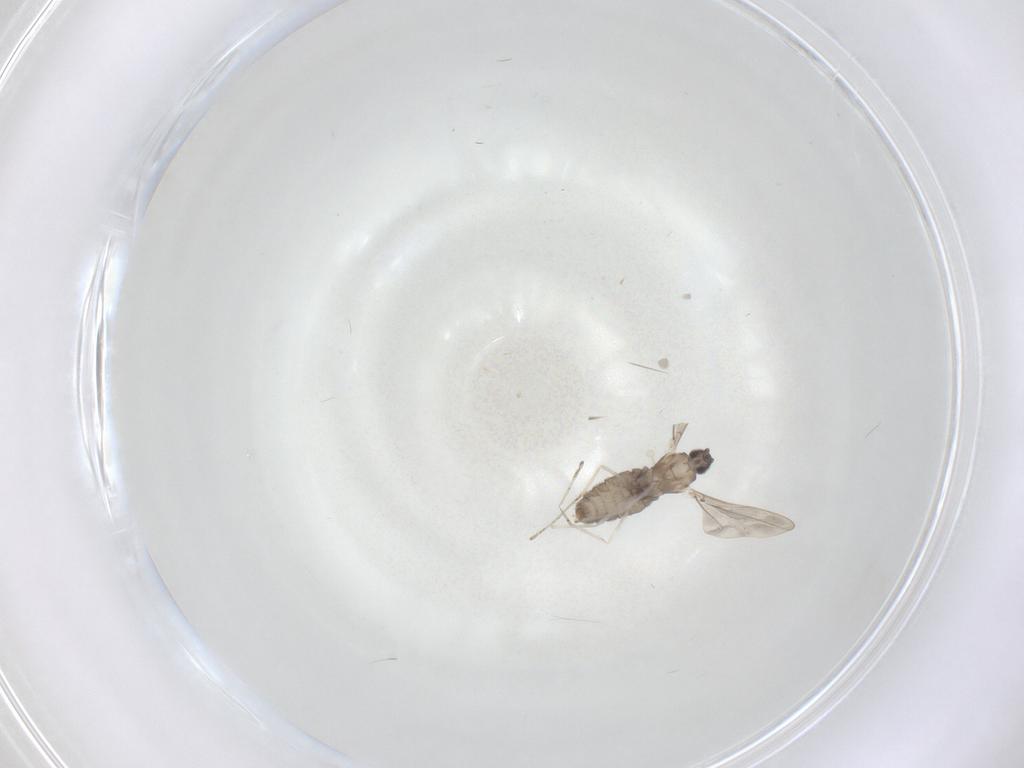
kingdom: Animalia
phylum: Arthropoda
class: Insecta
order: Diptera
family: Cecidomyiidae
